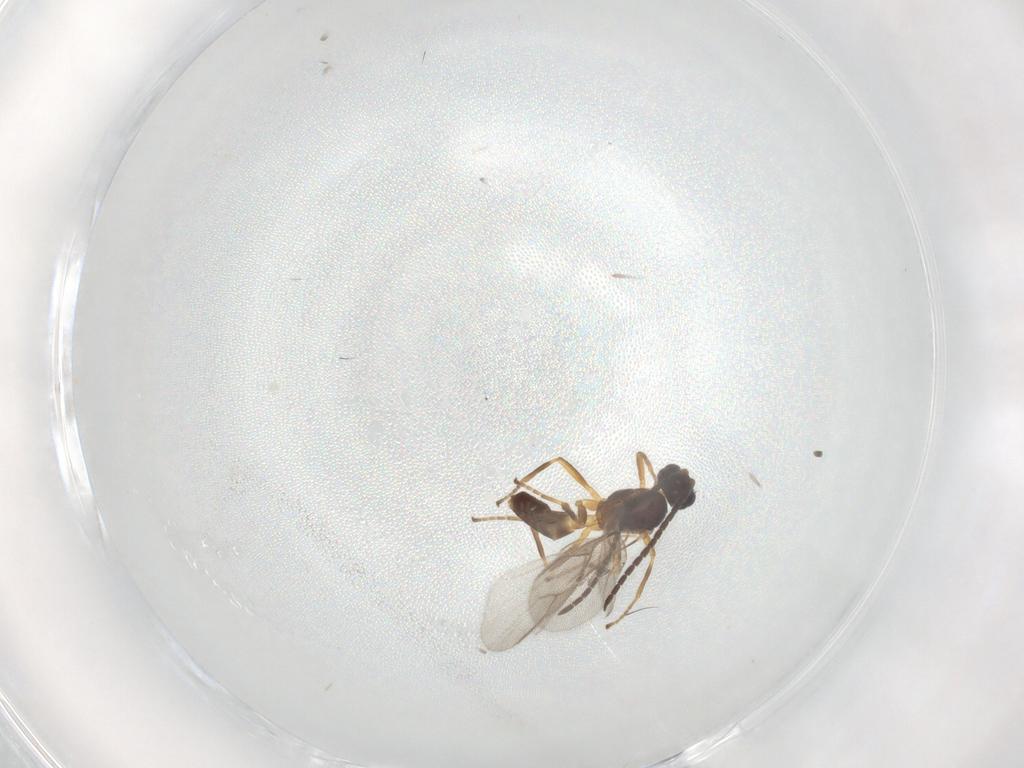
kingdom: Animalia
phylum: Arthropoda
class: Insecta
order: Hymenoptera
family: Braconidae
